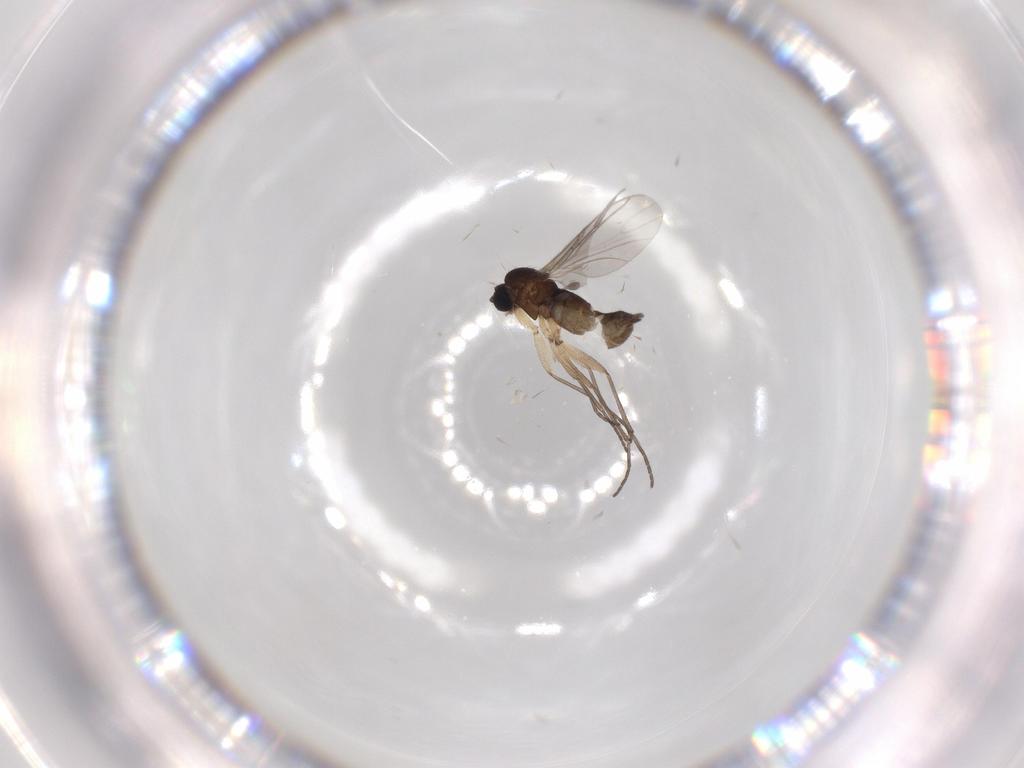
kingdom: Animalia
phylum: Arthropoda
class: Insecta
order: Diptera
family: Sciaridae
